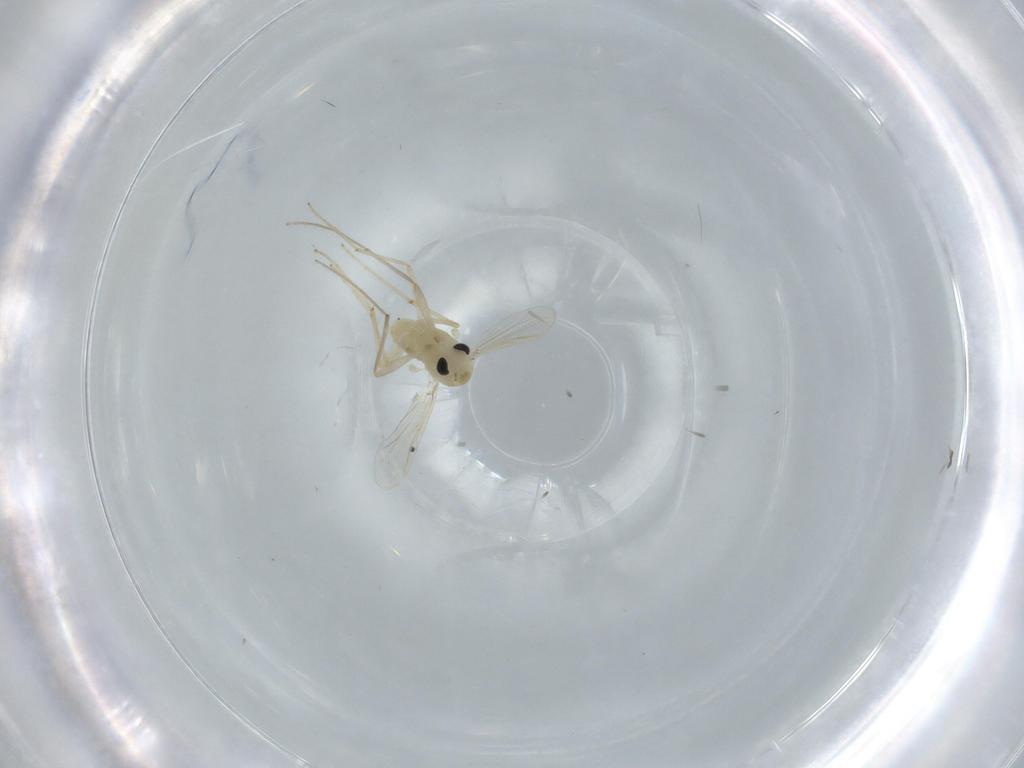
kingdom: Animalia
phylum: Arthropoda
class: Insecta
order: Diptera
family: Chironomidae
